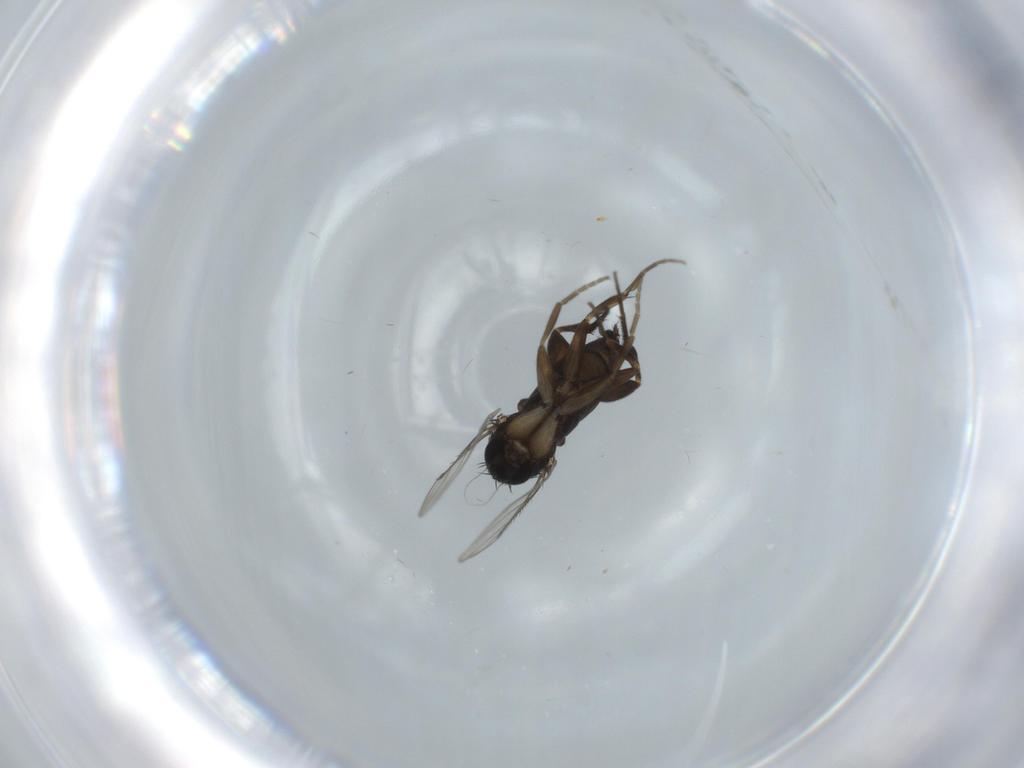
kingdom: Animalia
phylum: Arthropoda
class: Insecta
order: Diptera
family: Phoridae
